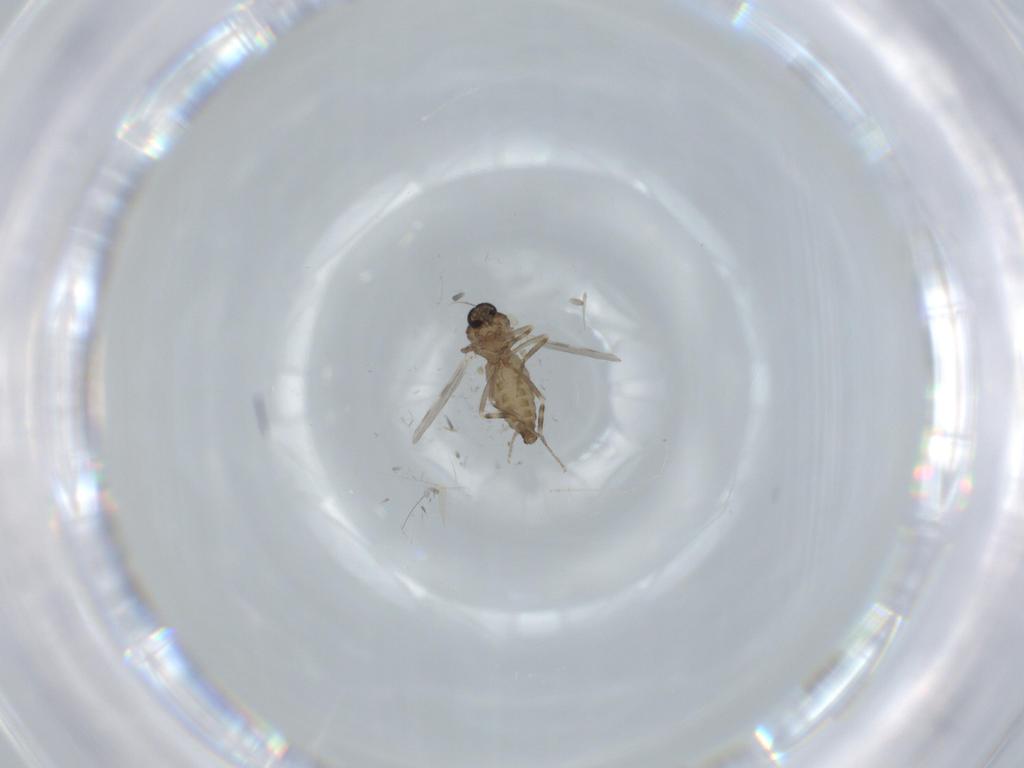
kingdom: Animalia
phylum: Arthropoda
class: Insecta
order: Diptera
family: Ceratopogonidae
